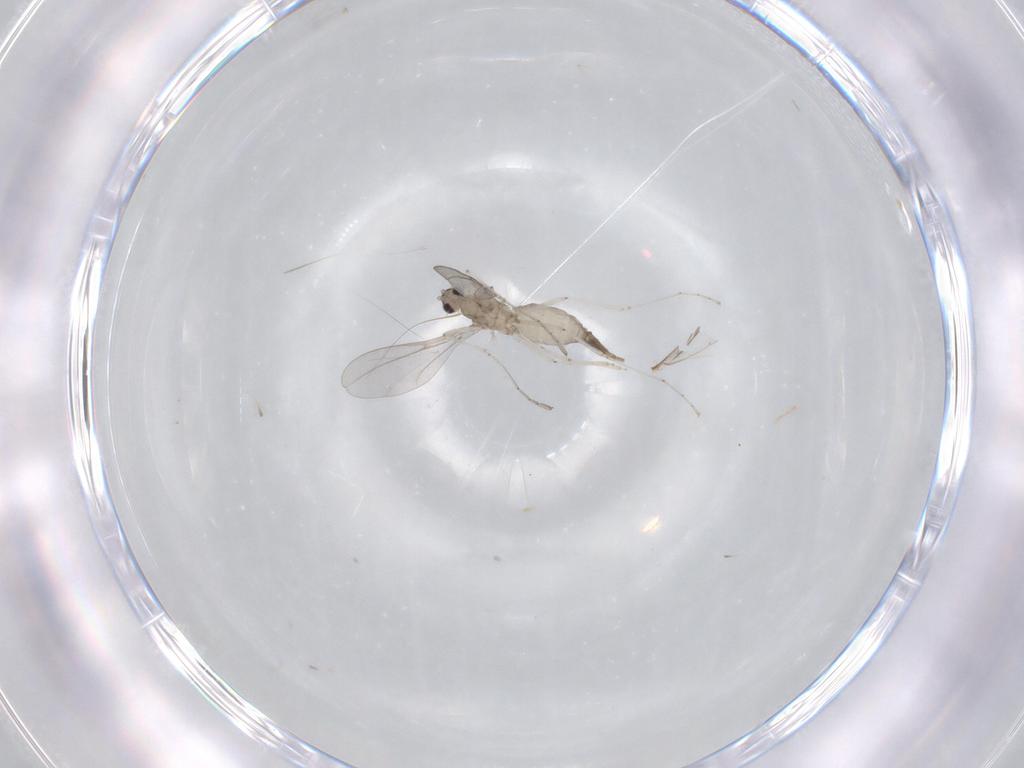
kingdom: Animalia
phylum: Arthropoda
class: Insecta
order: Diptera
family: Cecidomyiidae
